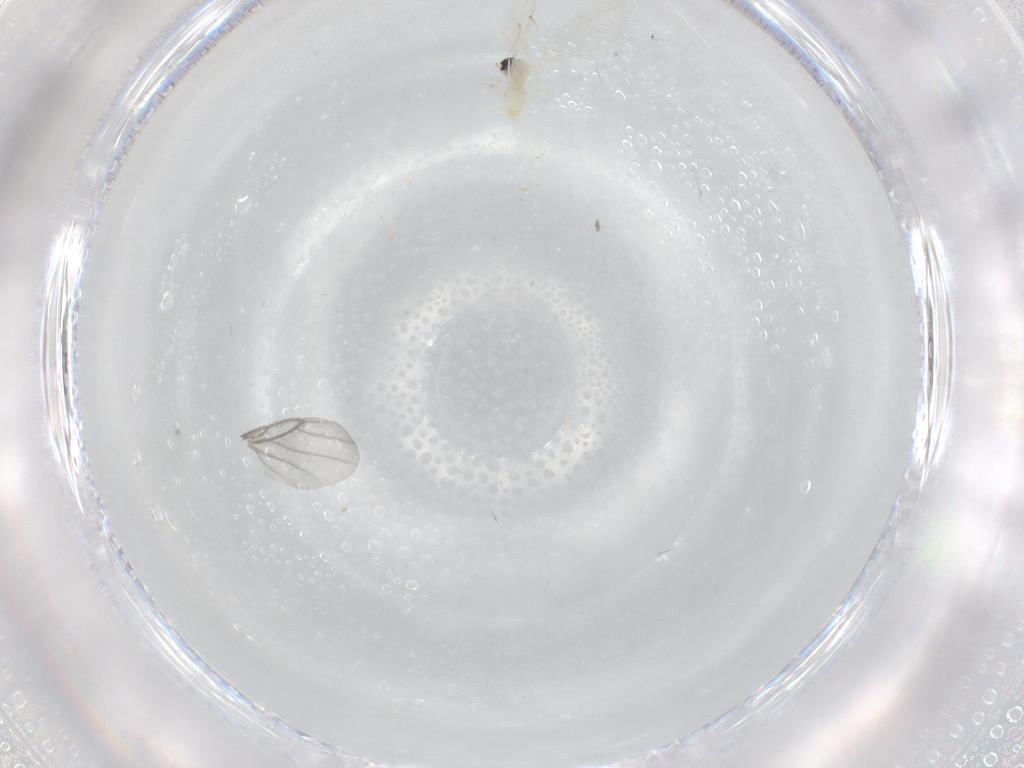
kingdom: Animalia
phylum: Arthropoda
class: Insecta
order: Diptera
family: Cecidomyiidae
